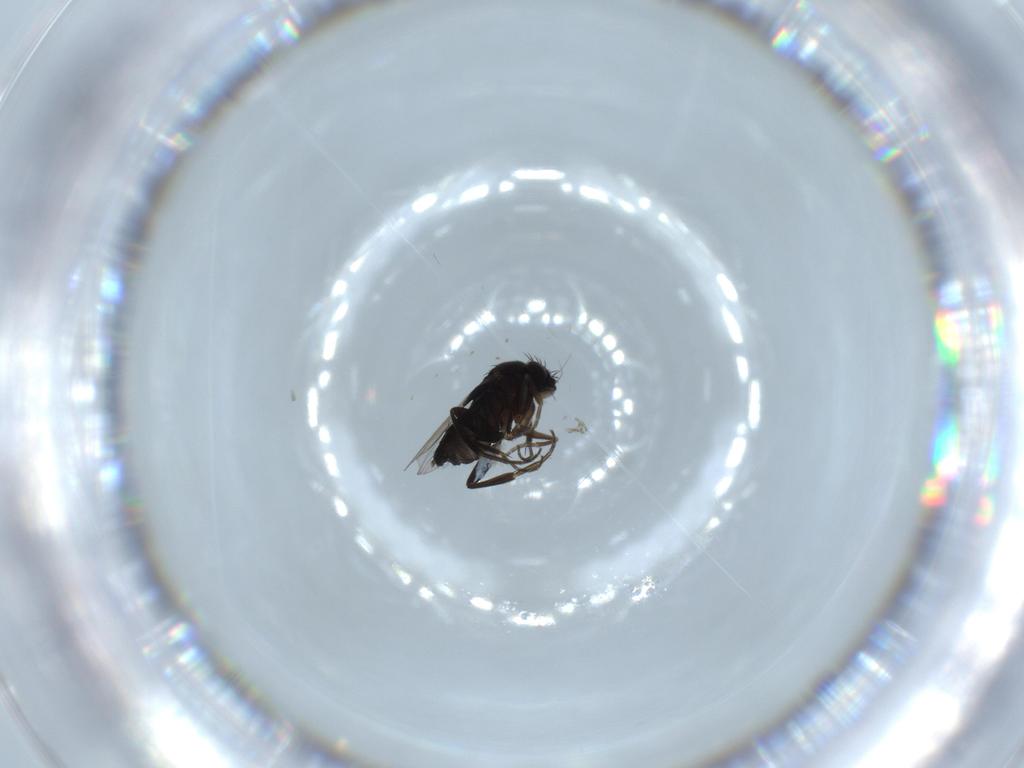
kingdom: Animalia
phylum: Arthropoda
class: Insecta
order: Diptera
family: Phoridae
